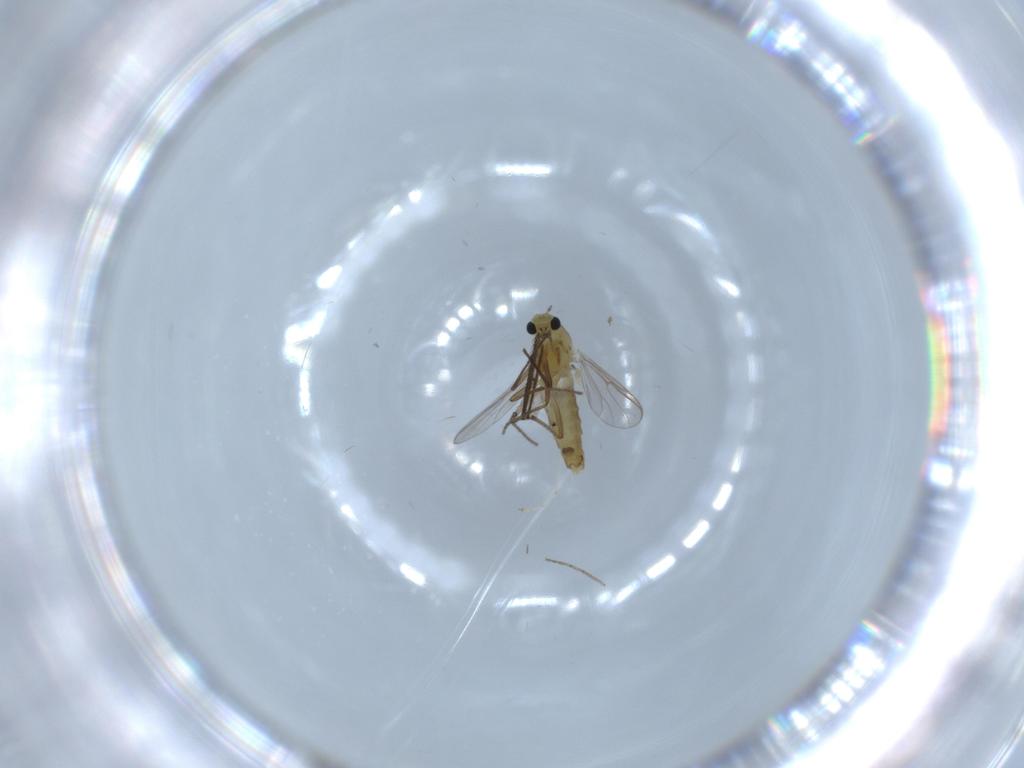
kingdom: Animalia
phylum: Arthropoda
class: Insecta
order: Diptera
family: Chironomidae
